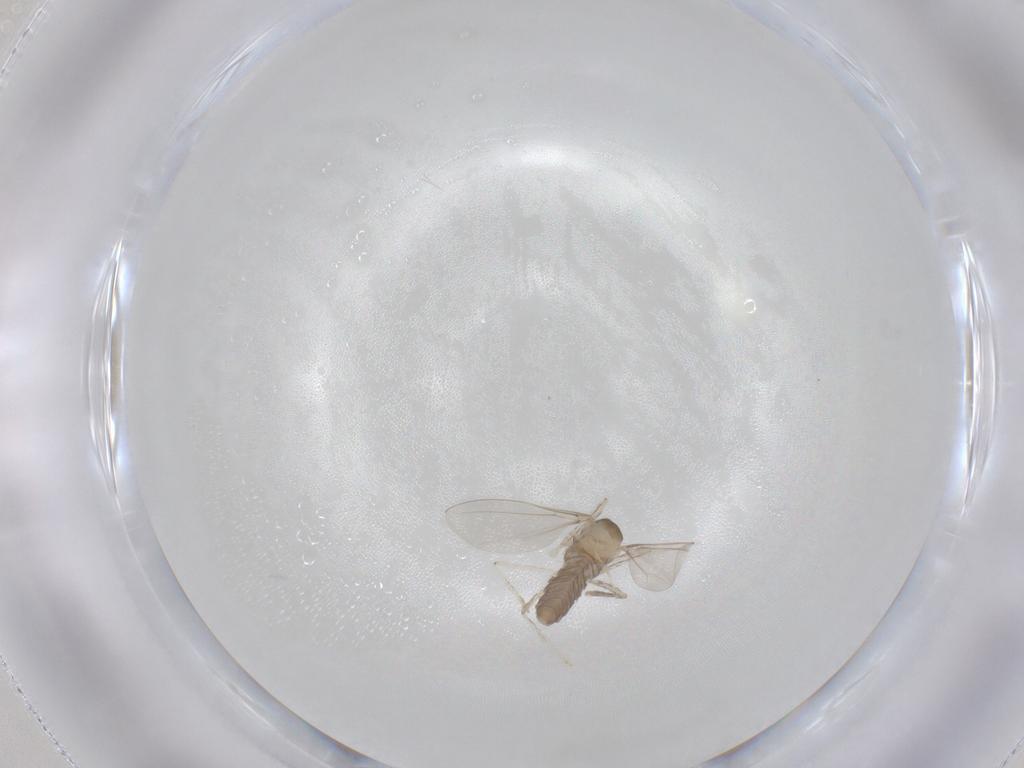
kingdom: Animalia
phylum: Arthropoda
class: Insecta
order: Diptera
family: Cecidomyiidae
